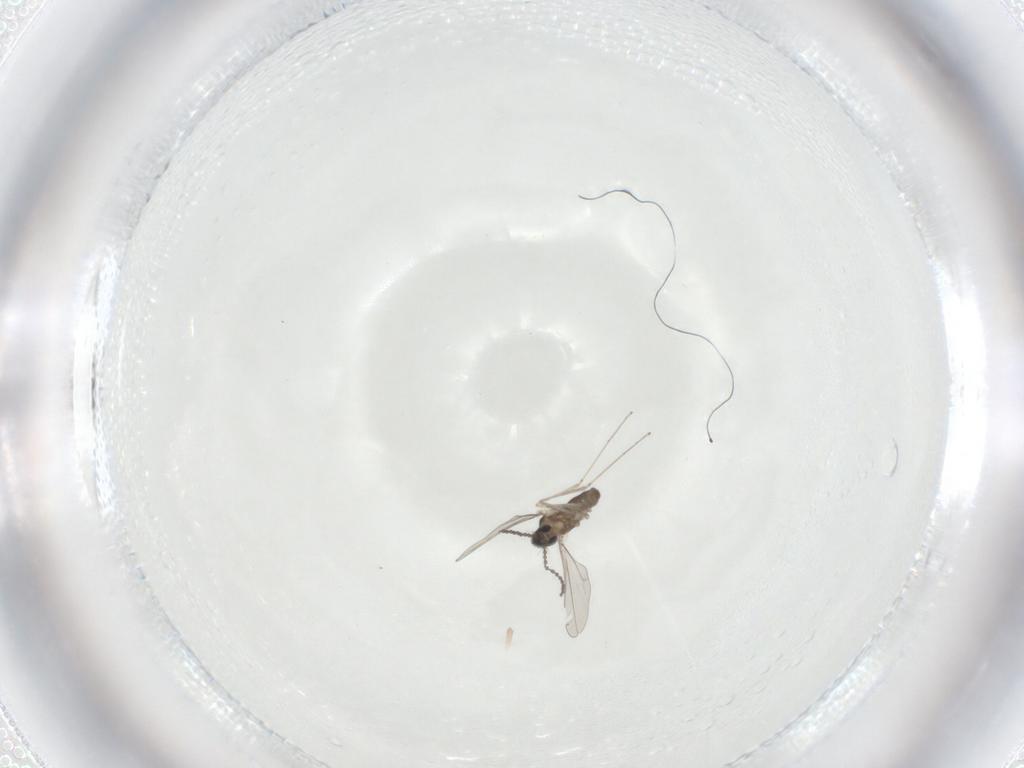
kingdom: Animalia
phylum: Arthropoda
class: Insecta
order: Diptera
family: Cecidomyiidae
